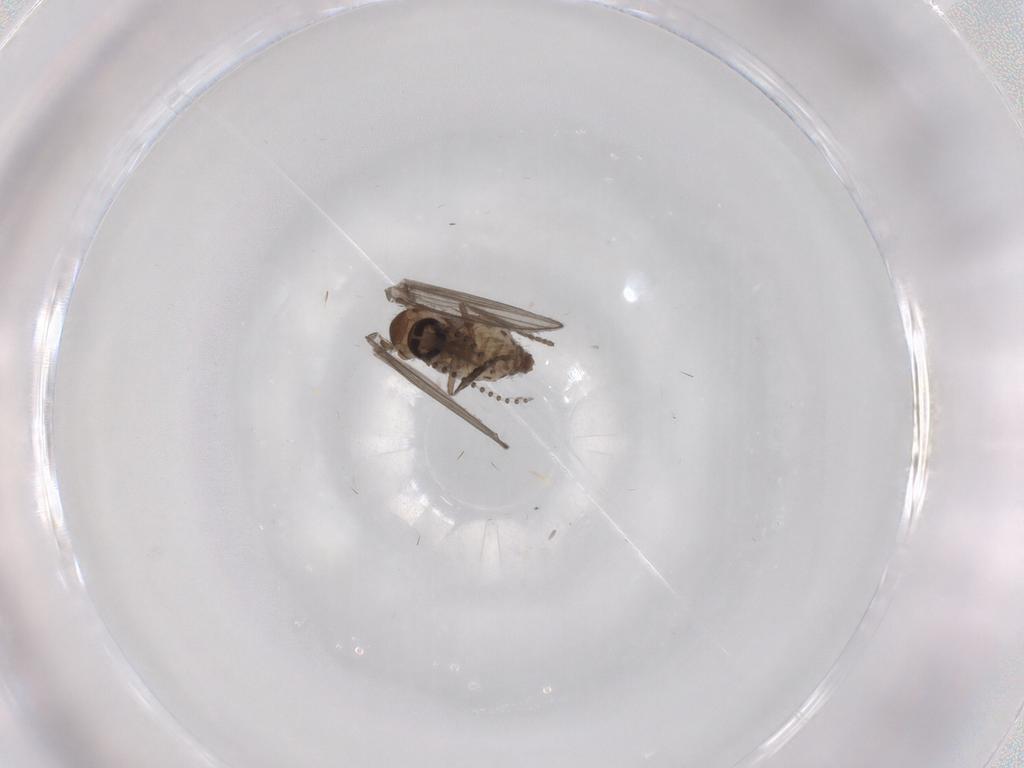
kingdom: Animalia
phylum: Arthropoda
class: Insecta
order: Diptera
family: Psychodidae
